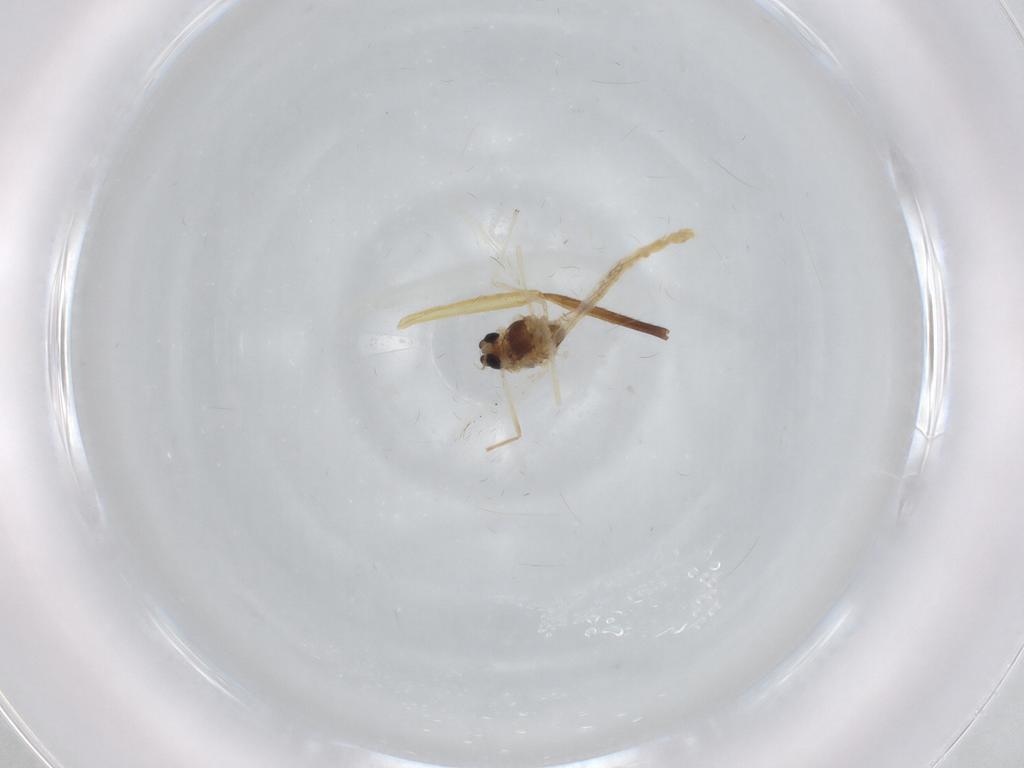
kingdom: Animalia
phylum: Arthropoda
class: Insecta
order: Diptera
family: Chironomidae
